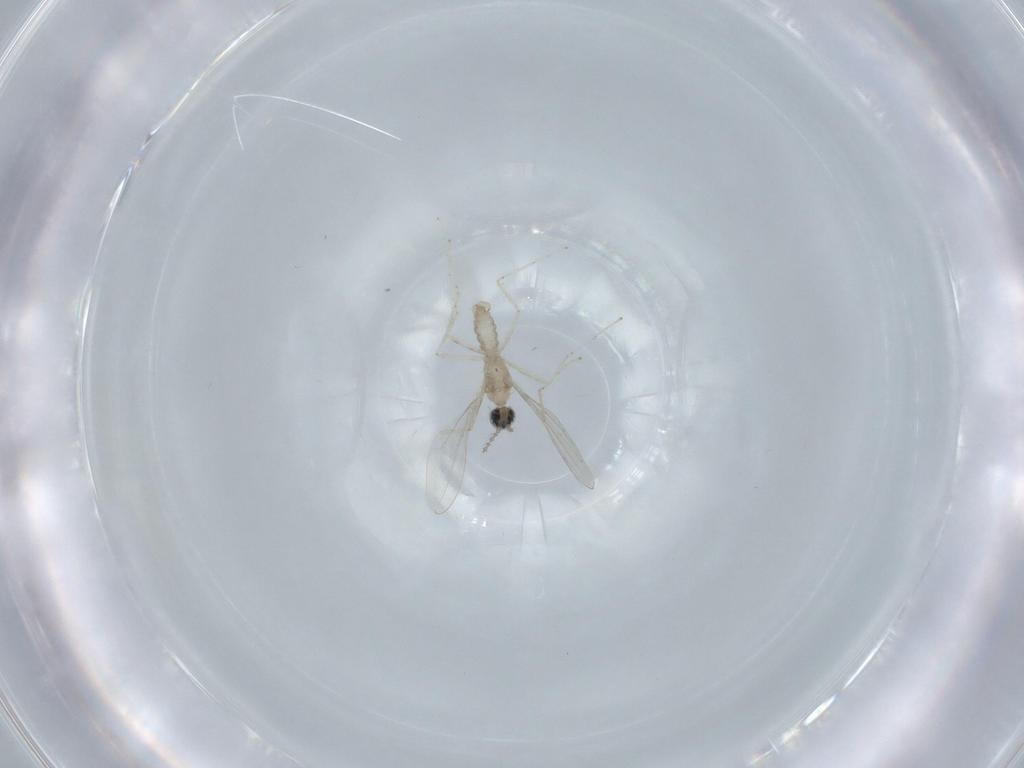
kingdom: Animalia
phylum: Arthropoda
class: Insecta
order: Diptera
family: Cecidomyiidae
